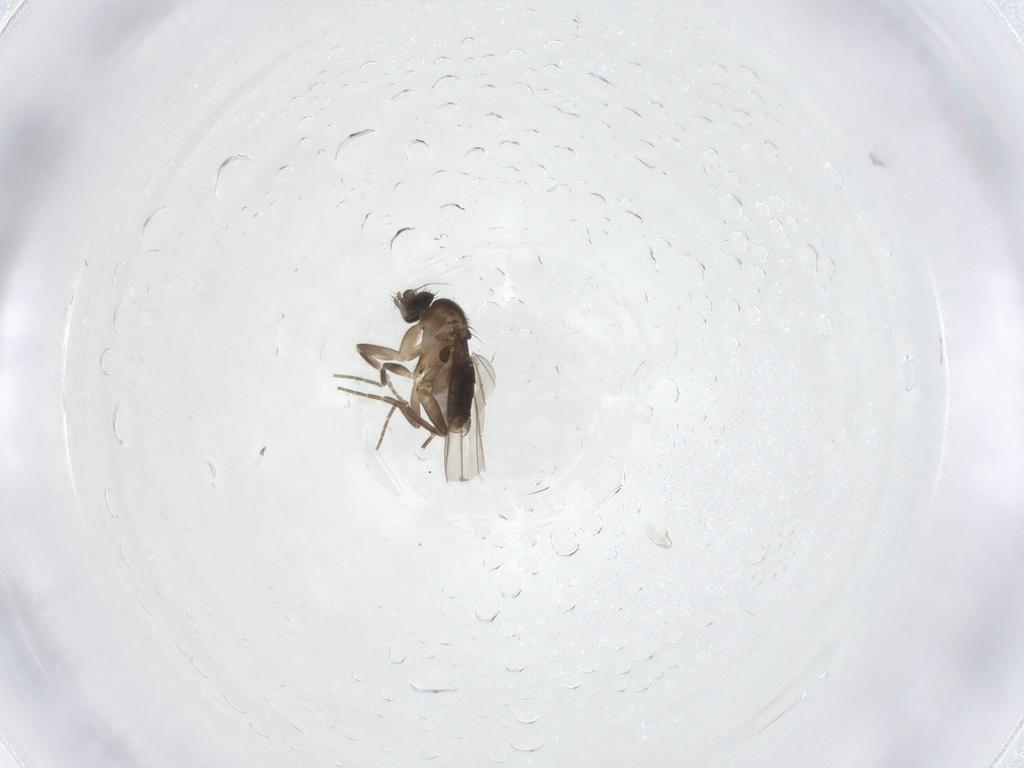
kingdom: Animalia
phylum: Arthropoda
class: Insecta
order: Diptera
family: Phoridae
